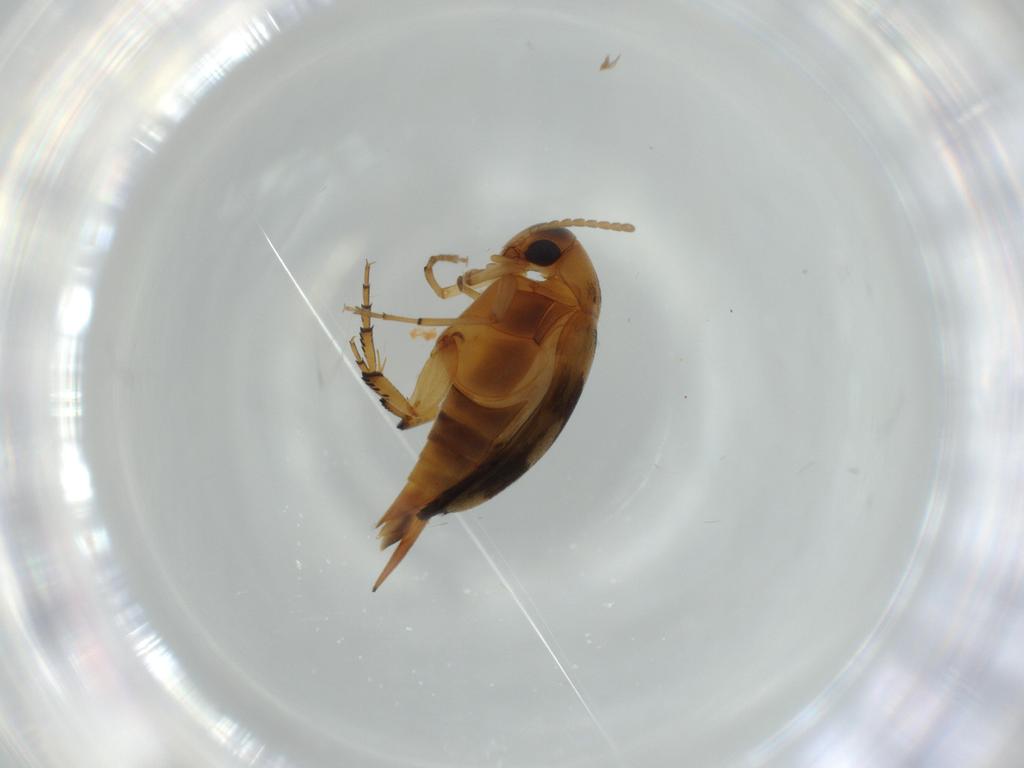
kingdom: Animalia
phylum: Arthropoda
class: Insecta
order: Coleoptera
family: Mordellidae
